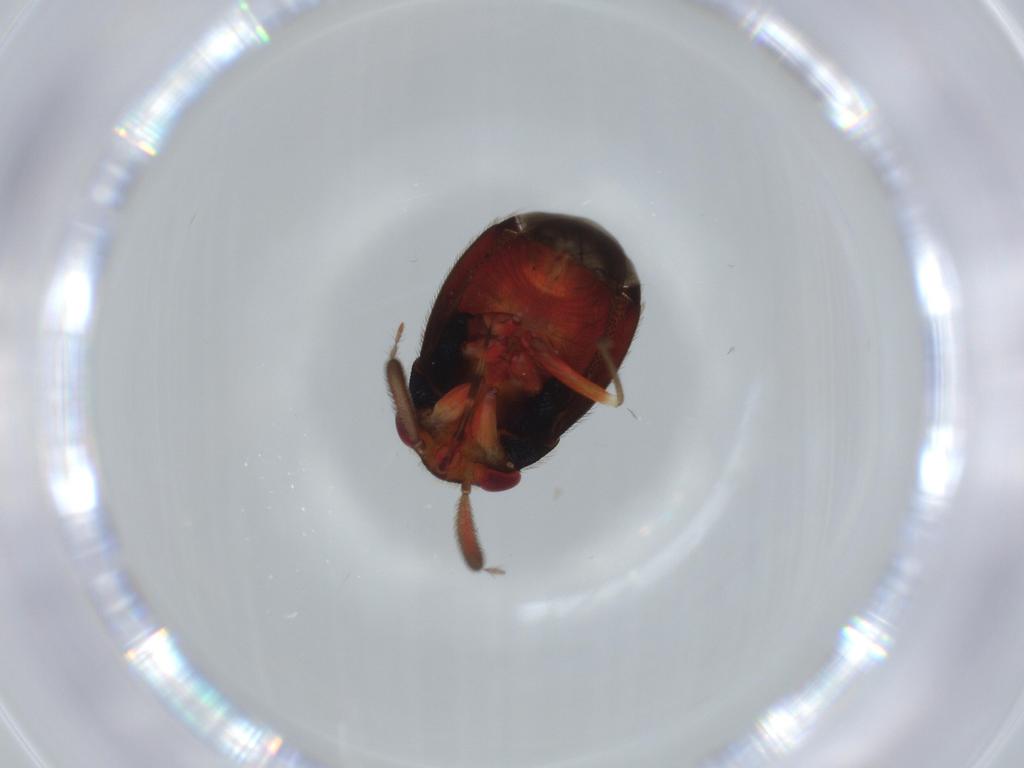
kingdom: Animalia
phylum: Arthropoda
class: Insecta
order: Hemiptera
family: Miridae
